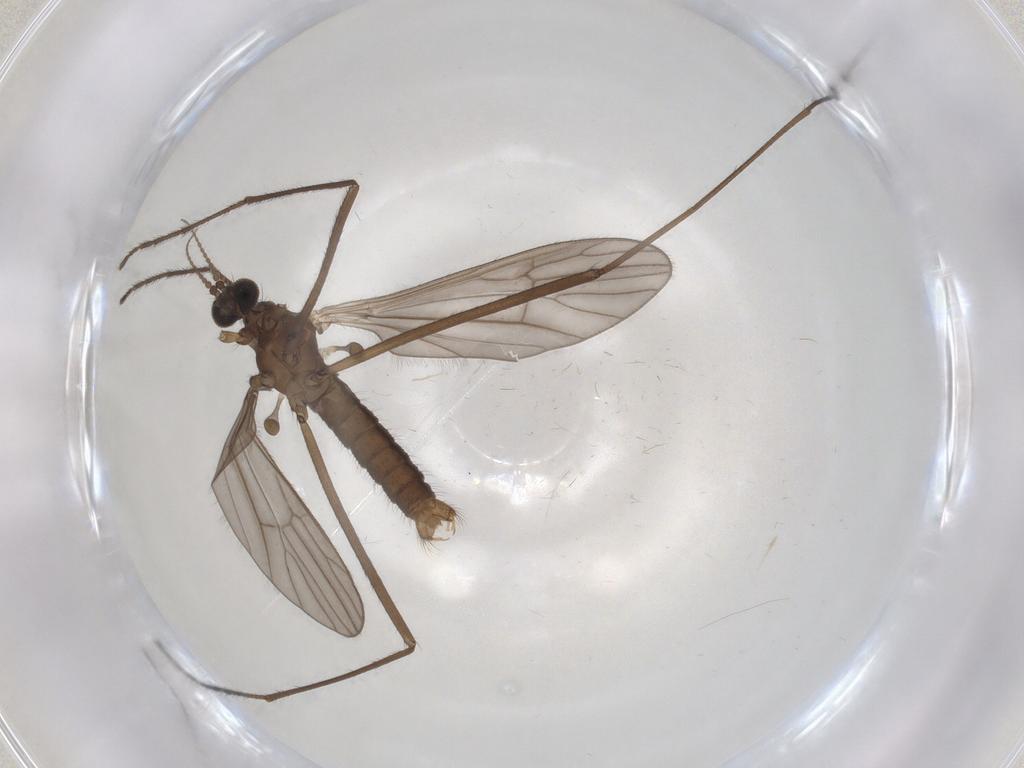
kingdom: Animalia
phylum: Arthropoda
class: Insecta
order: Diptera
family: Limoniidae
